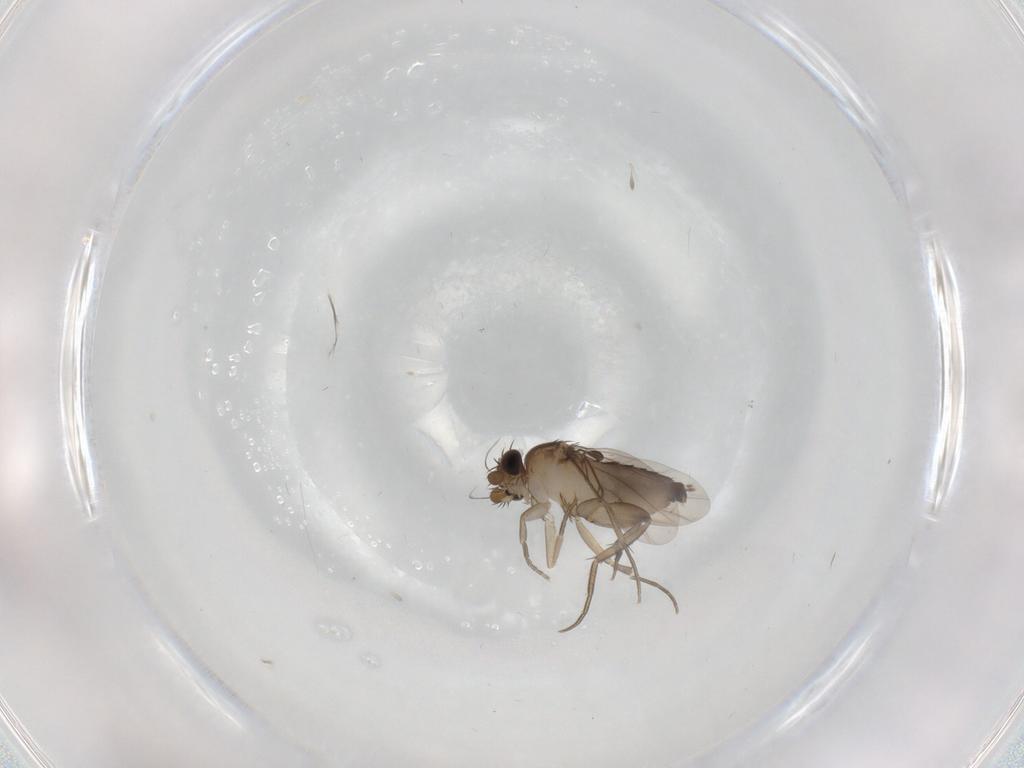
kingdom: Animalia
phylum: Arthropoda
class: Insecta
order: Diptera
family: Phoridae
